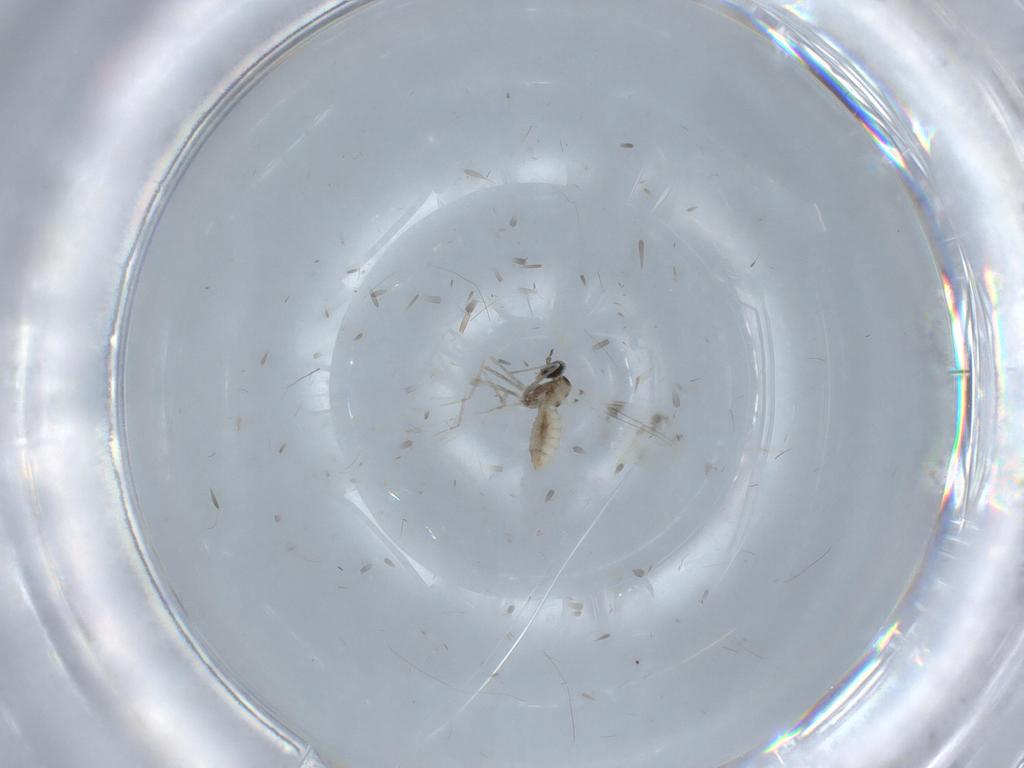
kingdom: Animalia
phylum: Arthropoda
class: Insecta
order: Diptera
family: Cecidomyiidae
